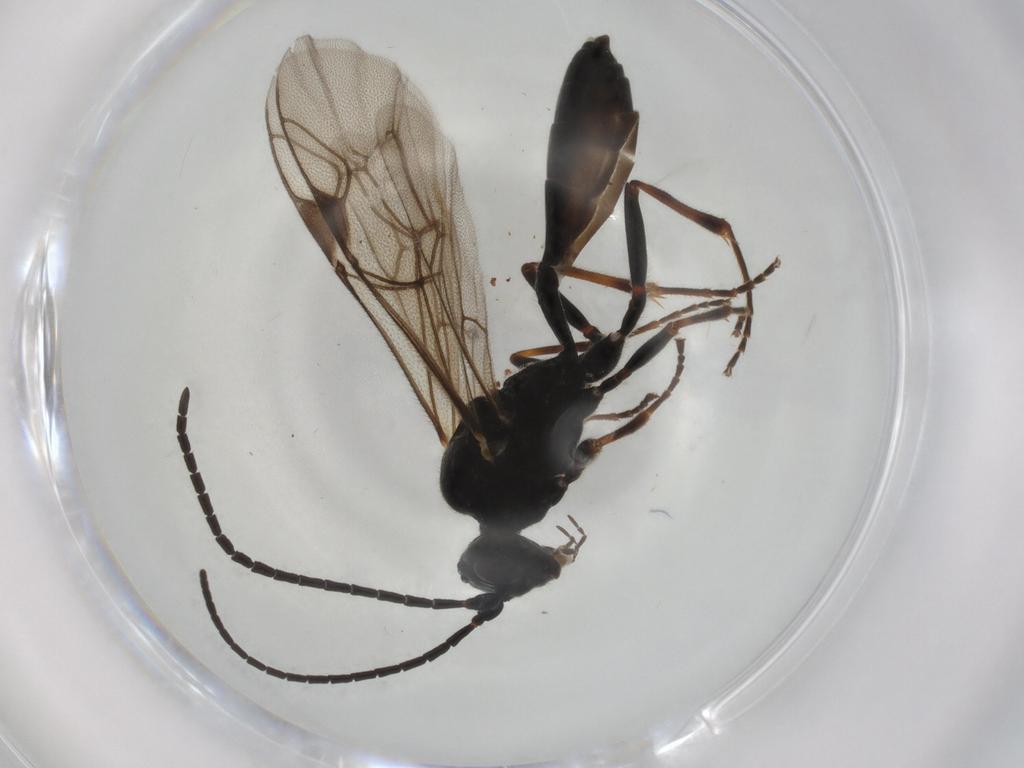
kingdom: Animalia
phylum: Arthropoda
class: Insecta
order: Hymenoptera
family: Ichneumonidae
